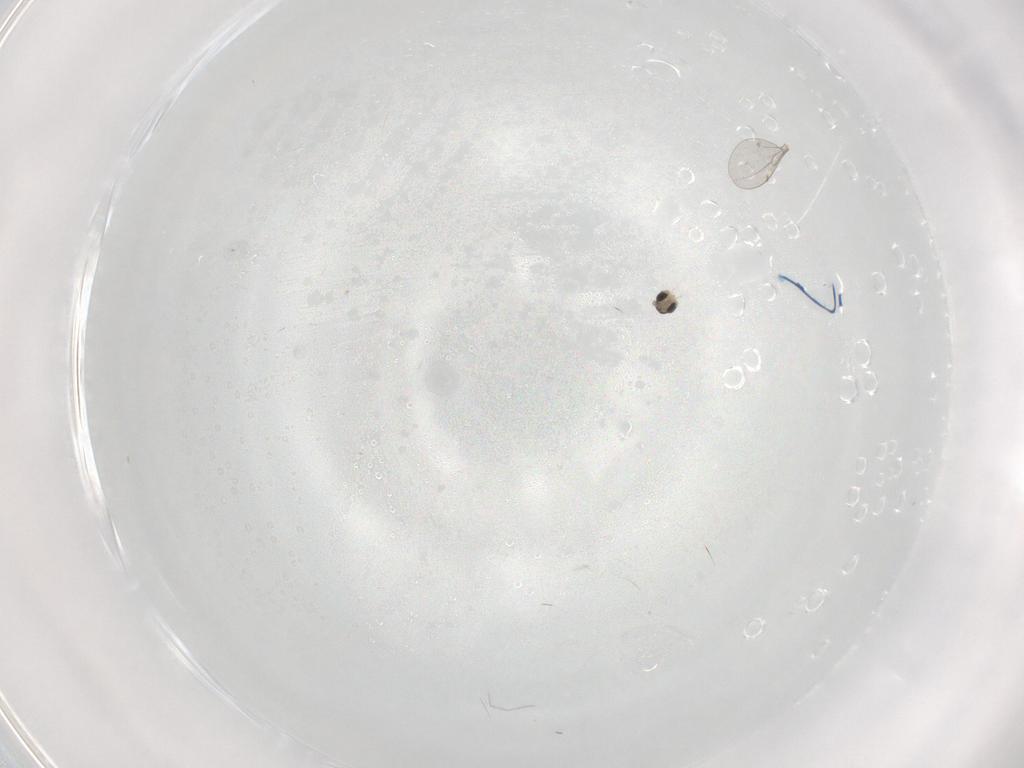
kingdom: Animalia
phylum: Arthropoda
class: Insecta
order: Diptera
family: Cecidomyiidae
